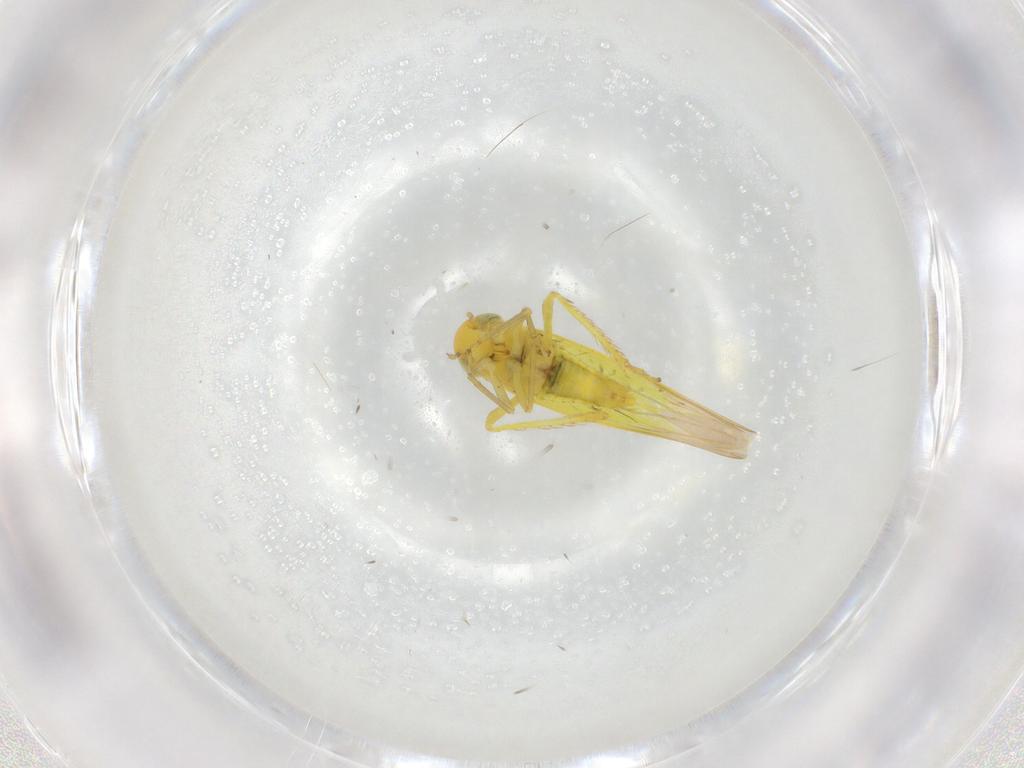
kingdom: Animalia
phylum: Arthropoda
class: Insecta
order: Hemiptera
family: Cicadellidae
